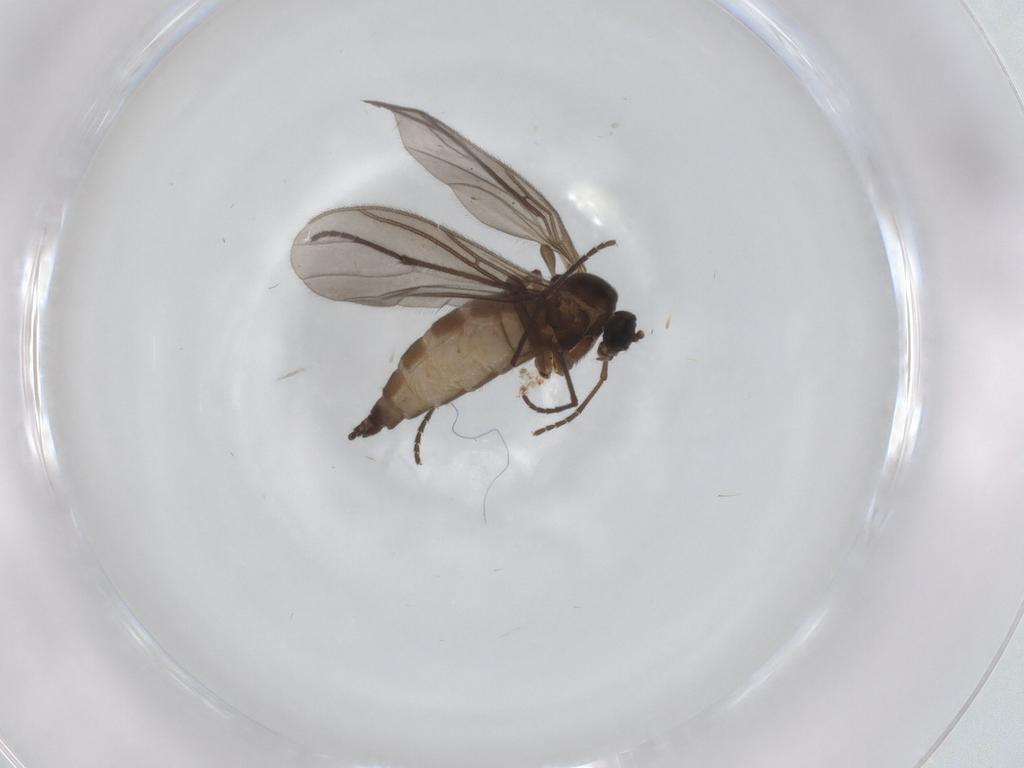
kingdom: Animalia
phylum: Arthropoda
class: Insecta
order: Diptera
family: Sciaridae
